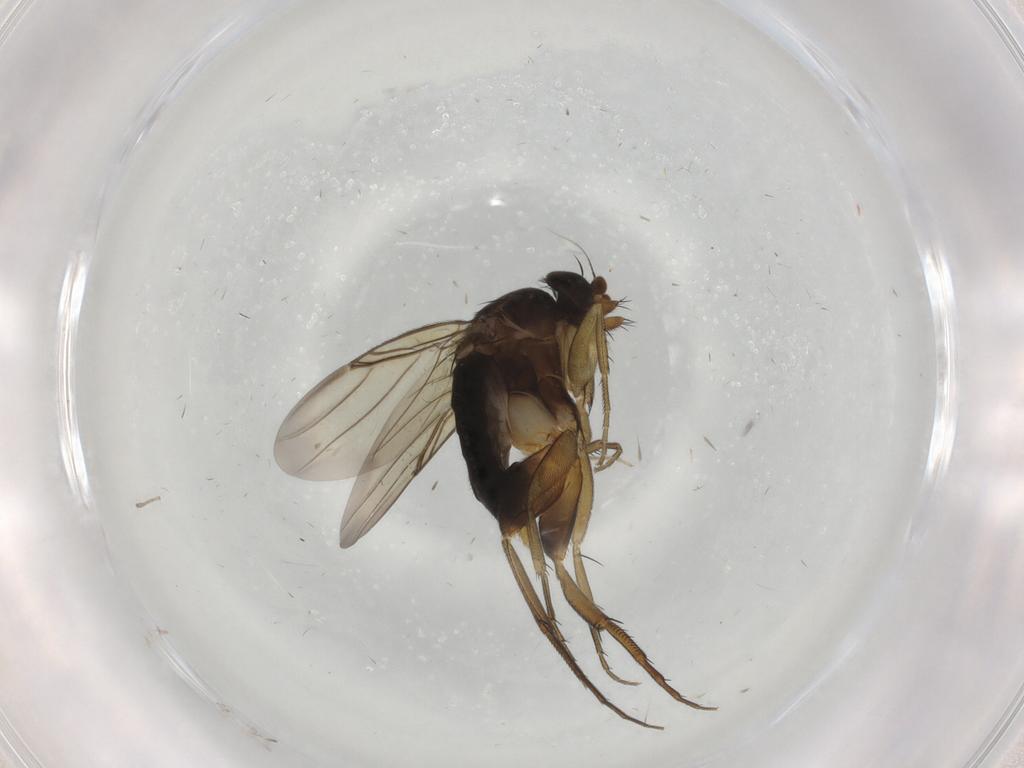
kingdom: Animalia
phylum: Arthropoda
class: Insecta
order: Diptera
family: Phoridae
